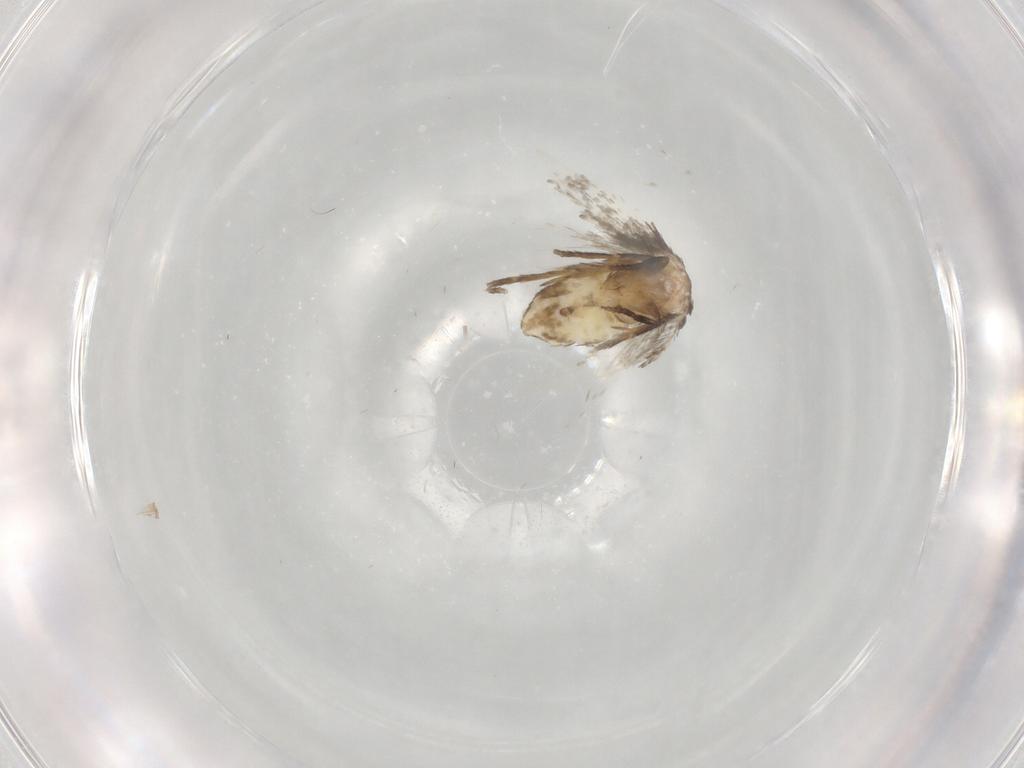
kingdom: Animalia
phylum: Arthropoda
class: Insecta
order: Lepidoptera
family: Nepticulidae
